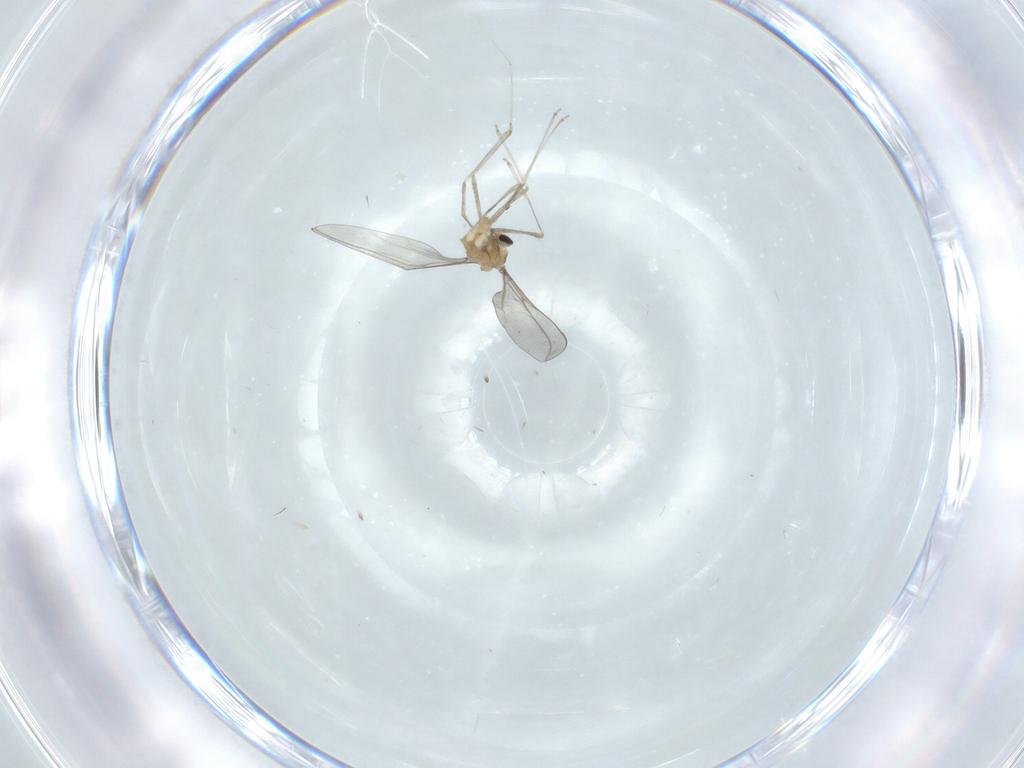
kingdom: Animalia
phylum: Arthropoda
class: Insecta
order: Diptera
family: Cecidomyiidae
